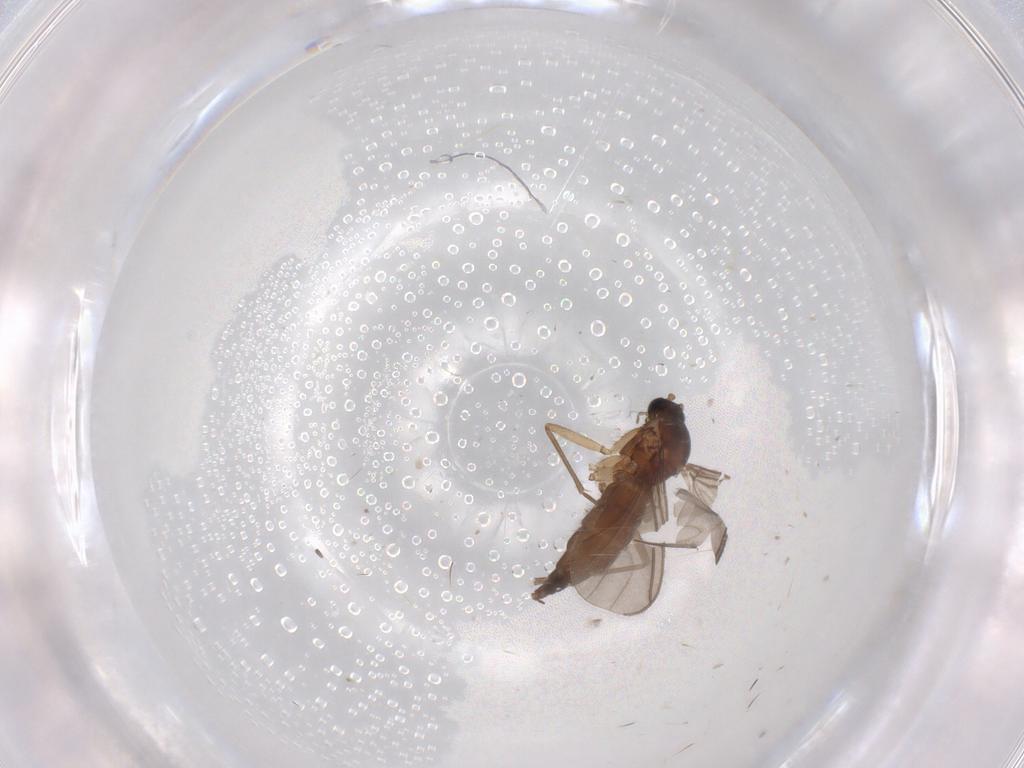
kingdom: Animalia
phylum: Arthropoda
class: Insecta
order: Diptera
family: Sciaridae
